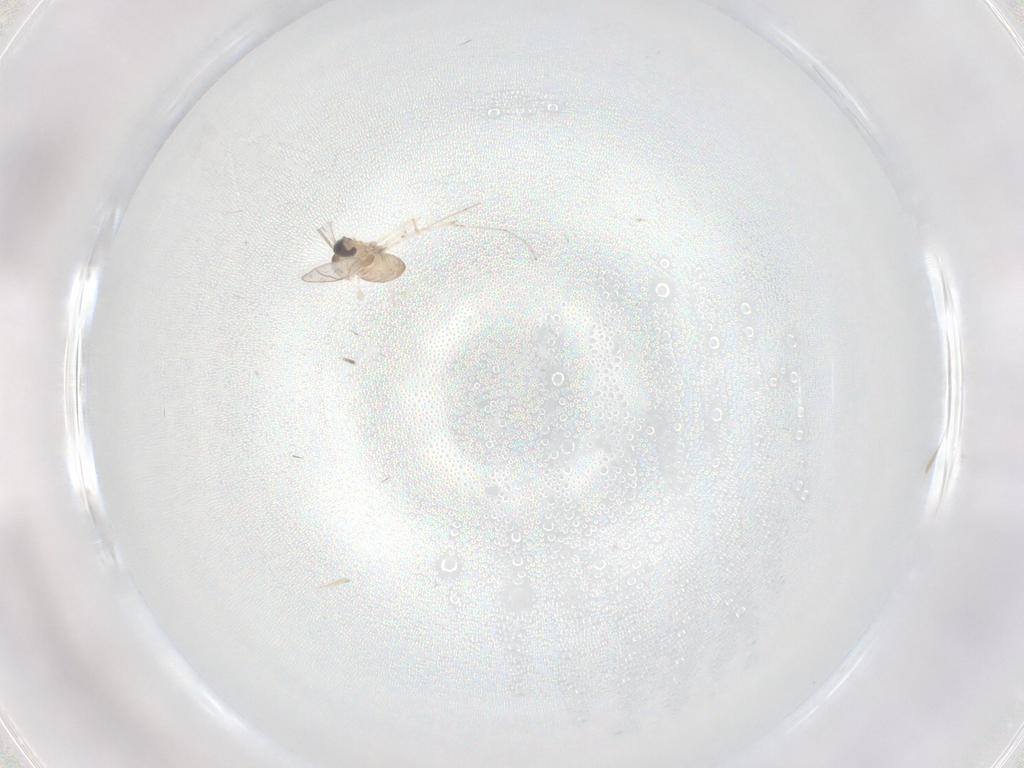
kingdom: Animalia
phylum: Arthropoda
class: Insecta
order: Diptera
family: Cecidomyiidae
